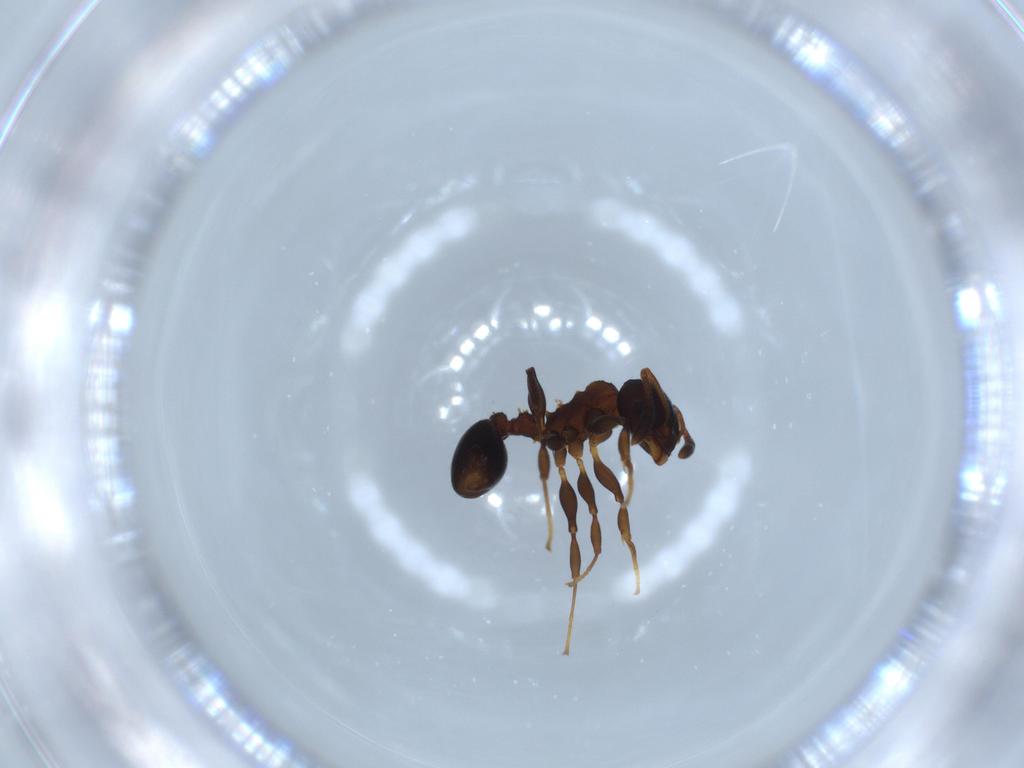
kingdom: Animalia
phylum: Arthropoda
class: Insecta
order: Hymenoptera
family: Formicidae
